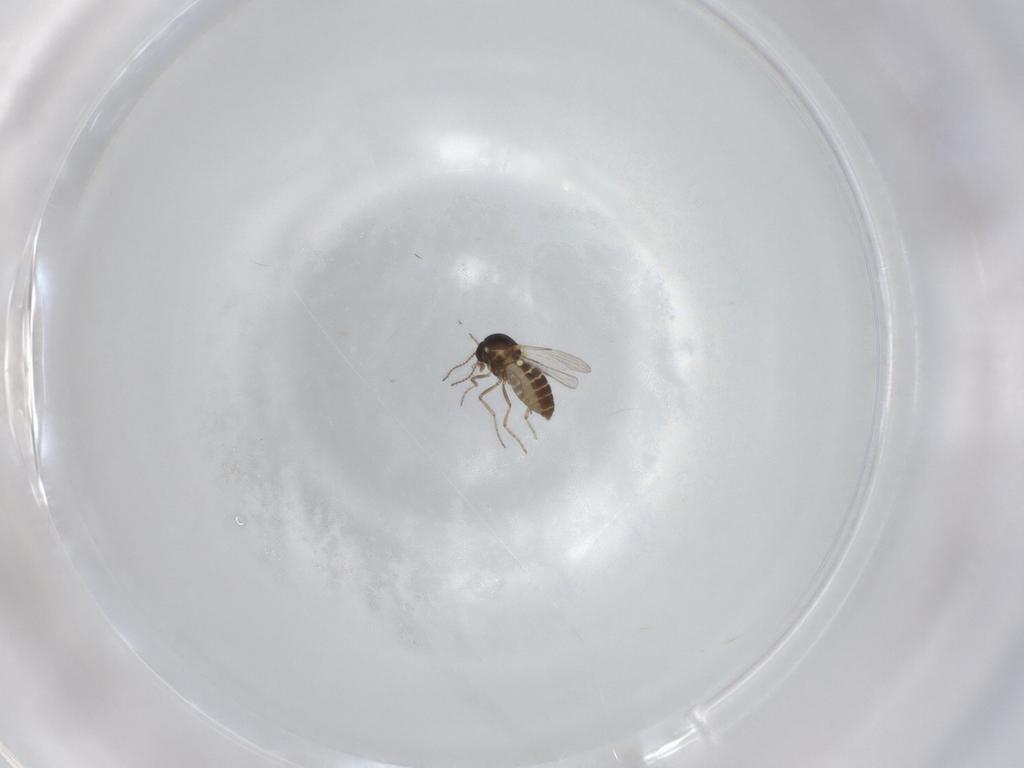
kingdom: Animalia
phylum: Arthropoda
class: Insecta
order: Diptera
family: Ceratopogonidae
